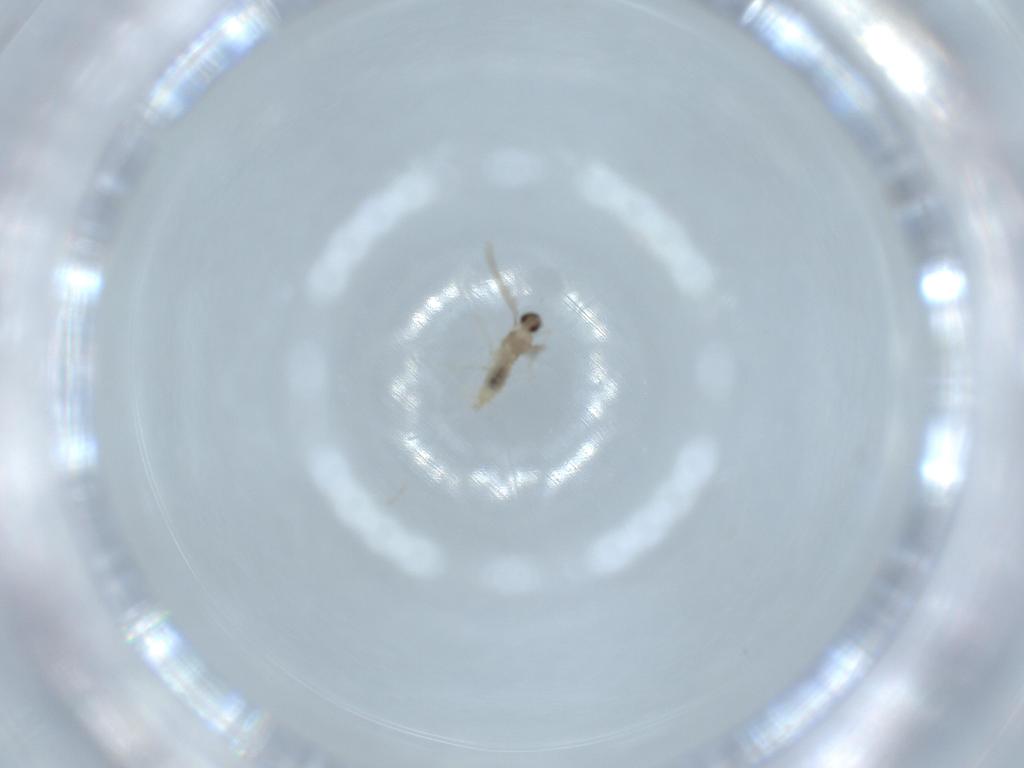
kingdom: Animalia
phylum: Arthropoda
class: Insecta
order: Diptera
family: Cecidomyiidae
